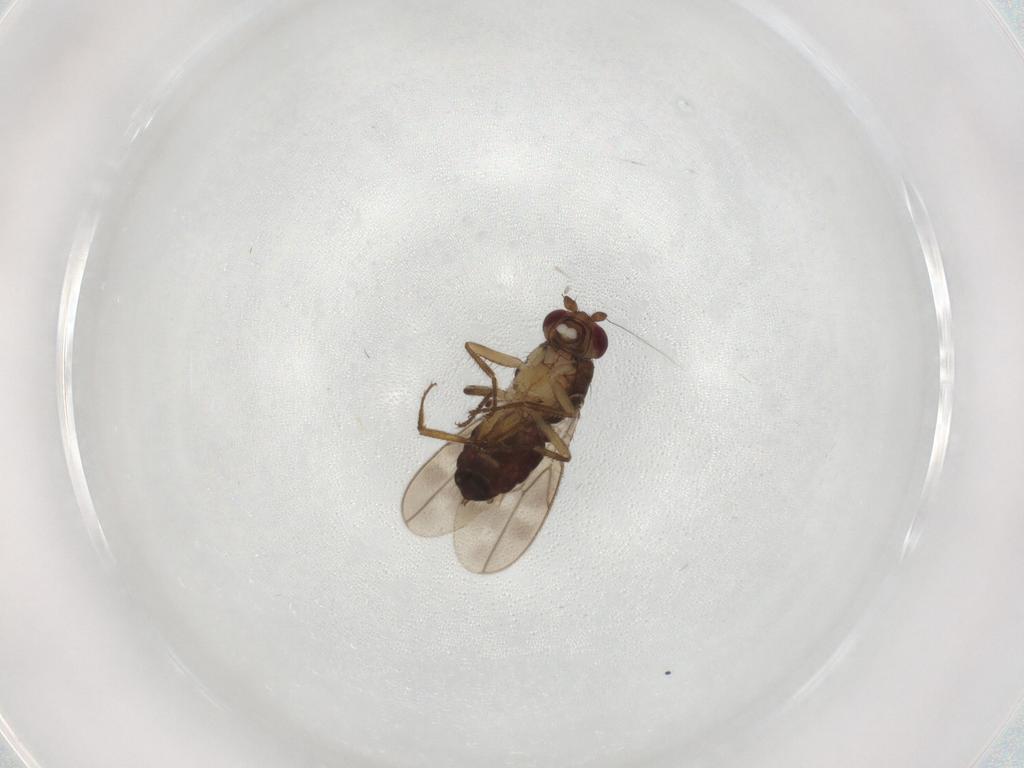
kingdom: Animalia
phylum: Arthropoda
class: Insecta
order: Diptera
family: Sphaeroceridae
